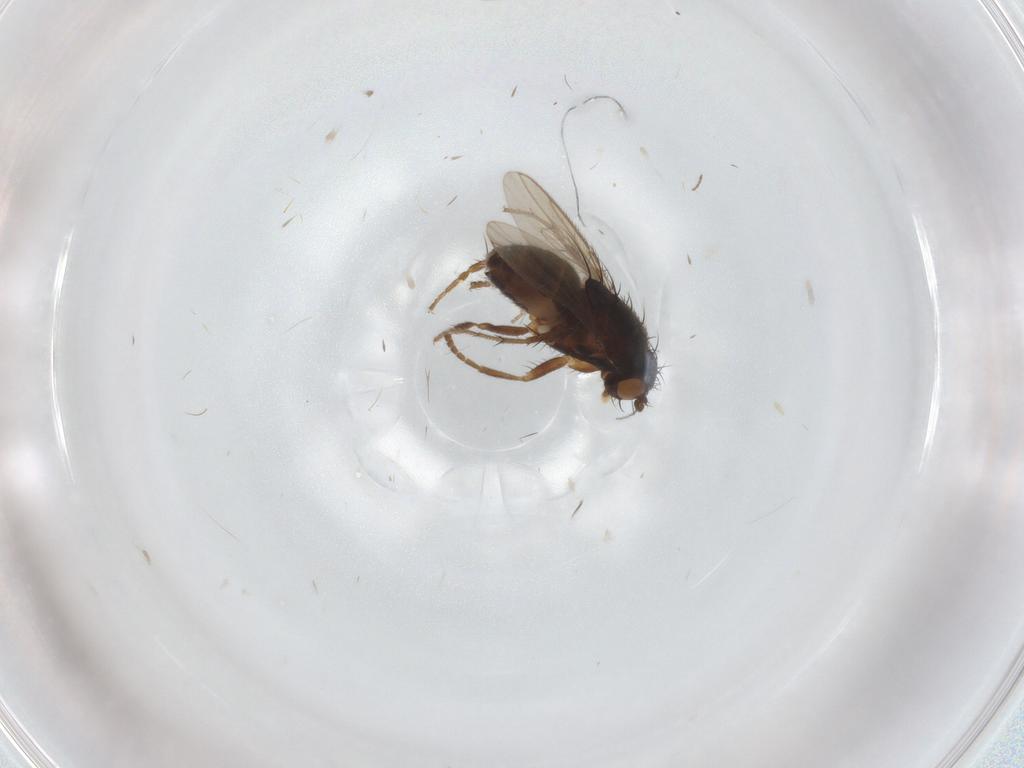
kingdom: Animalia
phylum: Arthropoda
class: Insecta
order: Diptera
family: Psychodidae
